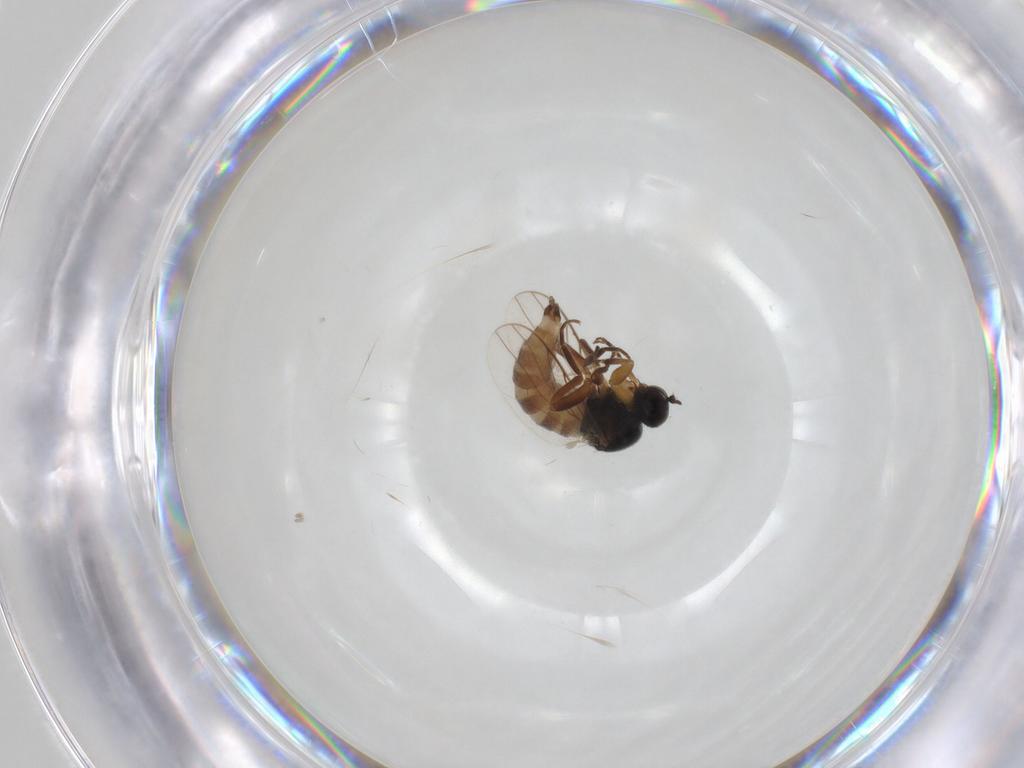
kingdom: Animalia
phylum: Arthropoda
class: Insecta
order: Diptera
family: Hybotidae
